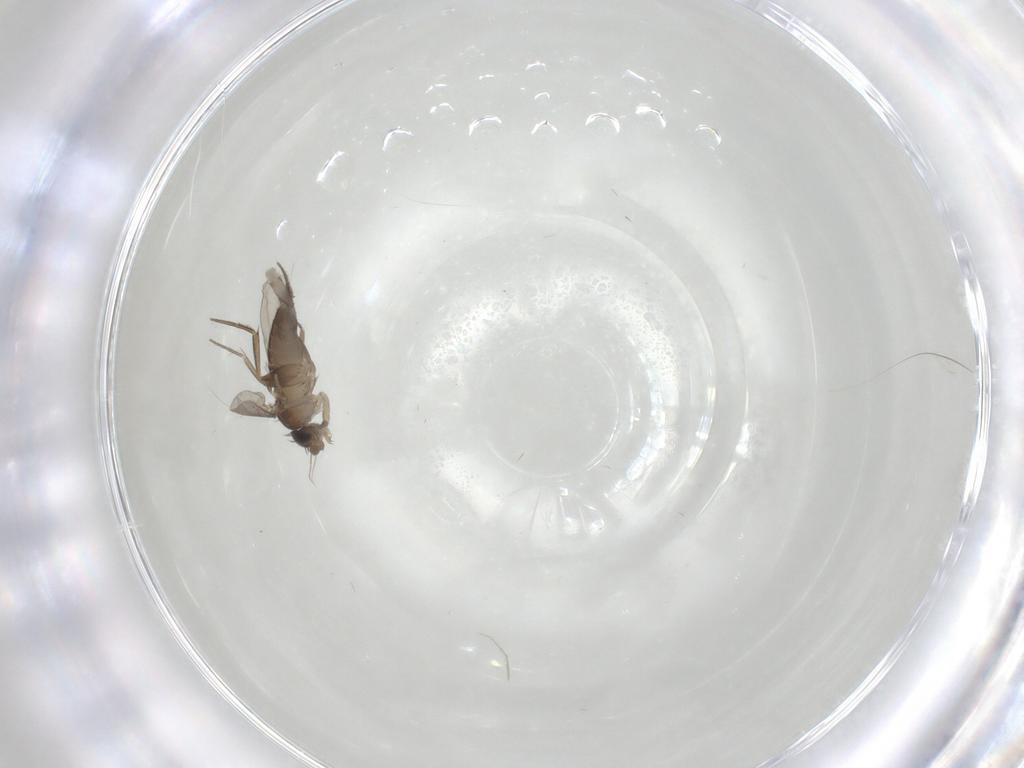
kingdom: Animalia
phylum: Arthropoda
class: Insecta
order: Diptera
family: Phoridae
